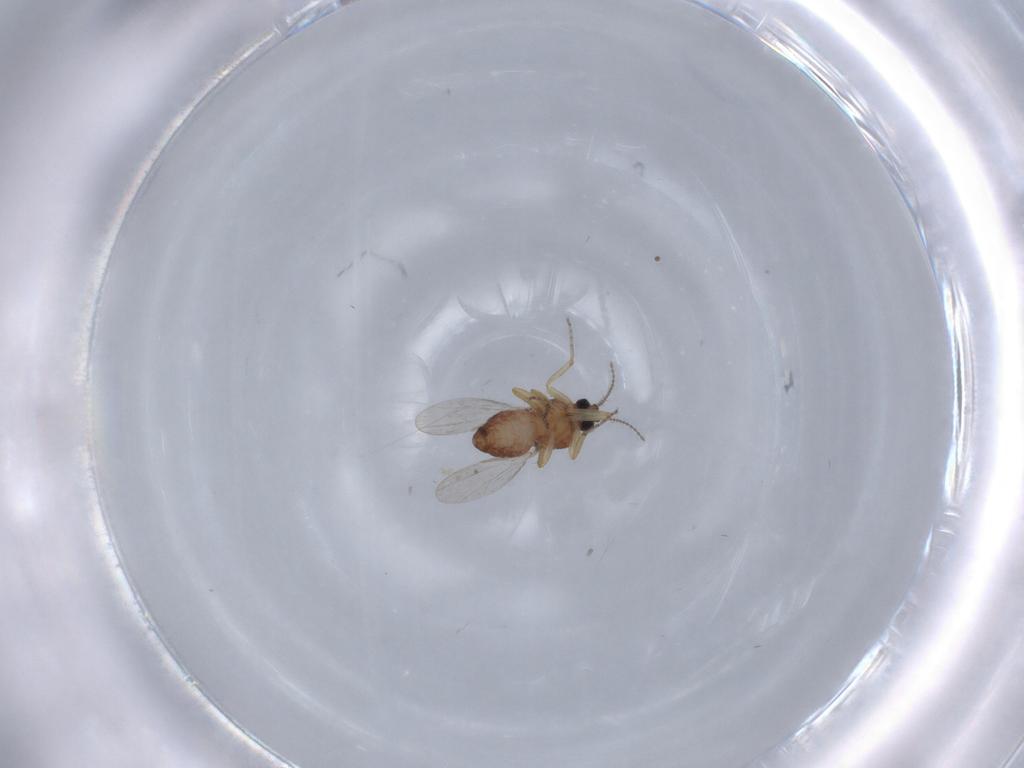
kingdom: Animalia
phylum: Arthropoda
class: Insecta
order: Diptera
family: Ceratopogonidae
